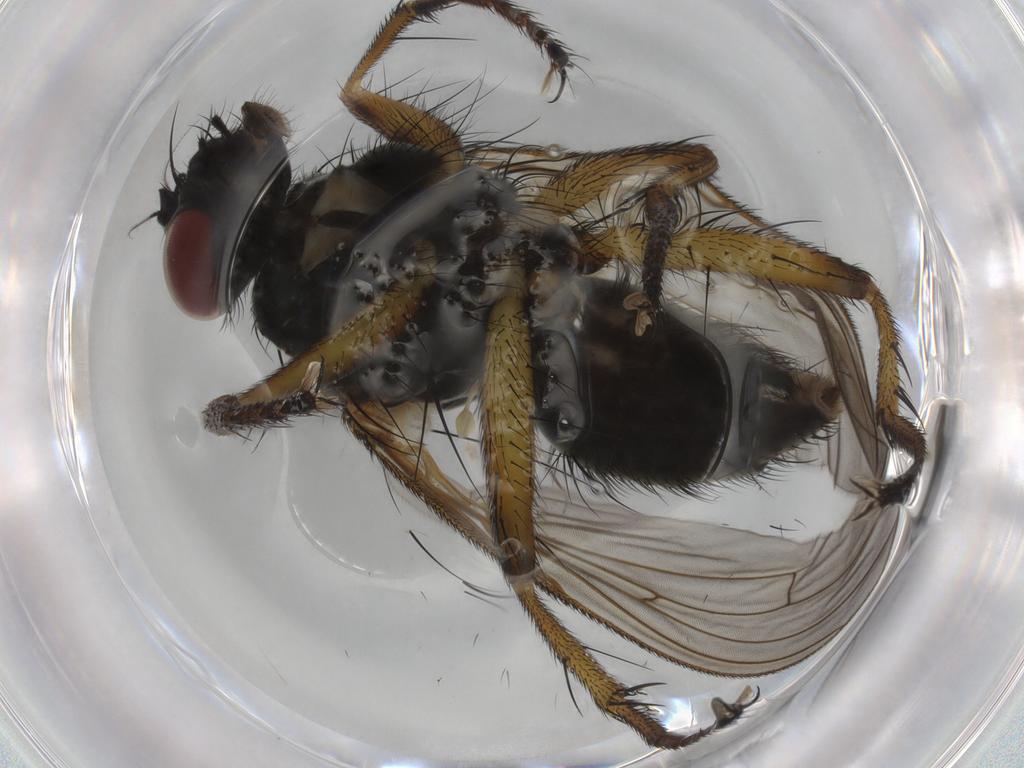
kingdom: Animalia
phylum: Arthropoda
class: Insecta
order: Diptera
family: Muscidae
